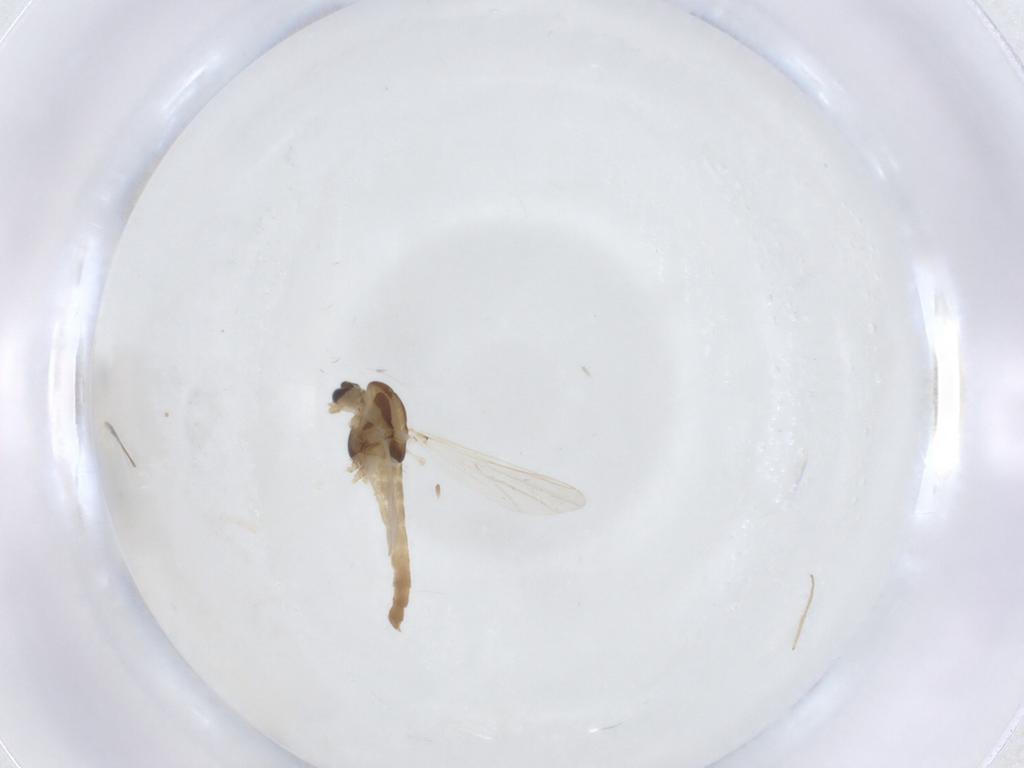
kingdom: Animalia
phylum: Arthropoda
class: Insecta
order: Diptera
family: Chironomidae
